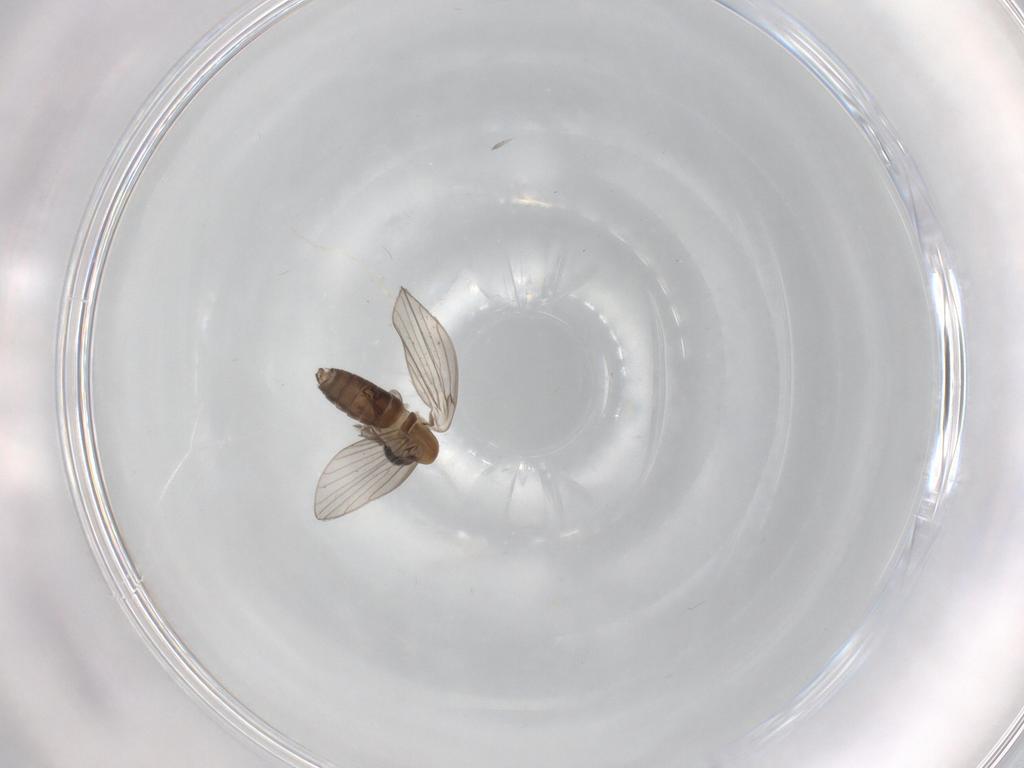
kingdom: Animalia
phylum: Arthropoda
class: Insecta
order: Diptera
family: Psychodidae
